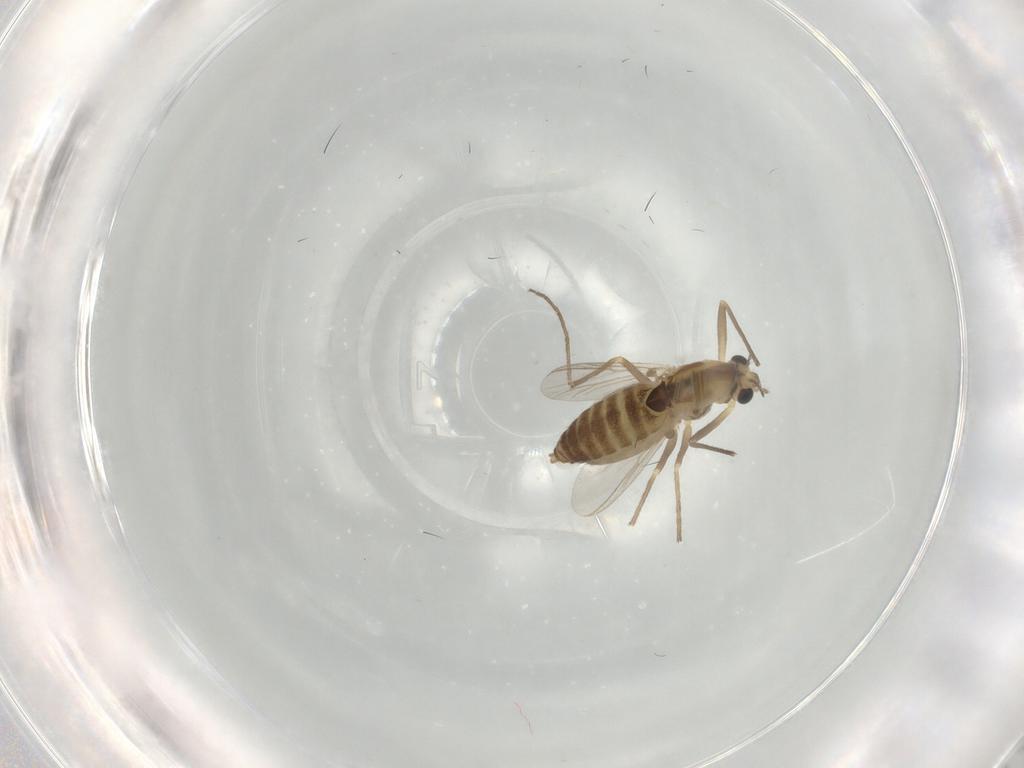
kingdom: Animalia
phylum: Arthropoda
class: Insecta
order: Diptera
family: Chironomidae
